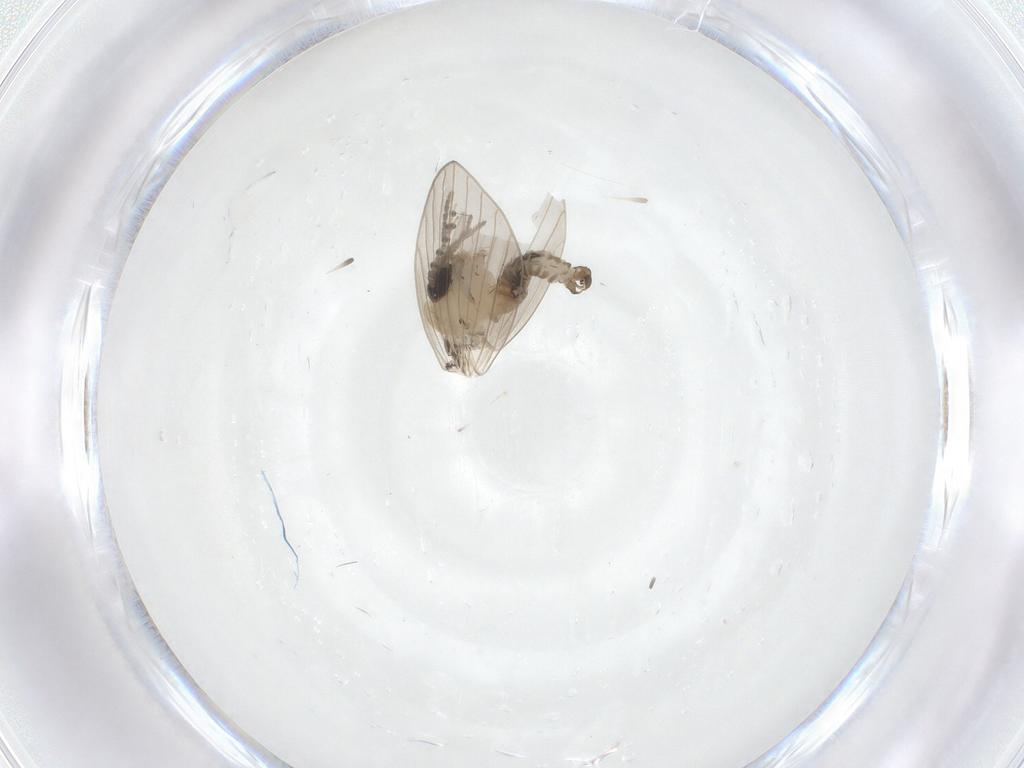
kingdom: Animalia
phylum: Arthropoda
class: Insecta
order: Diptera
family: Psychodidae
